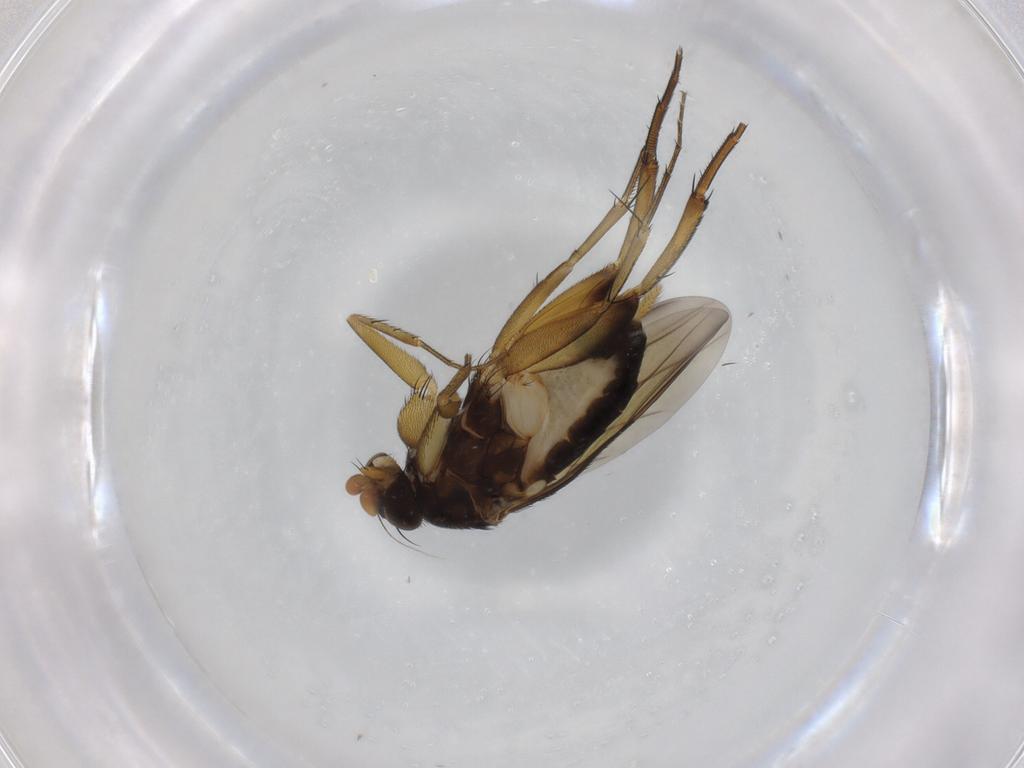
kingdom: Animalia
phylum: Arthropoda
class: Insecta
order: Diptera
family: Phoridae
